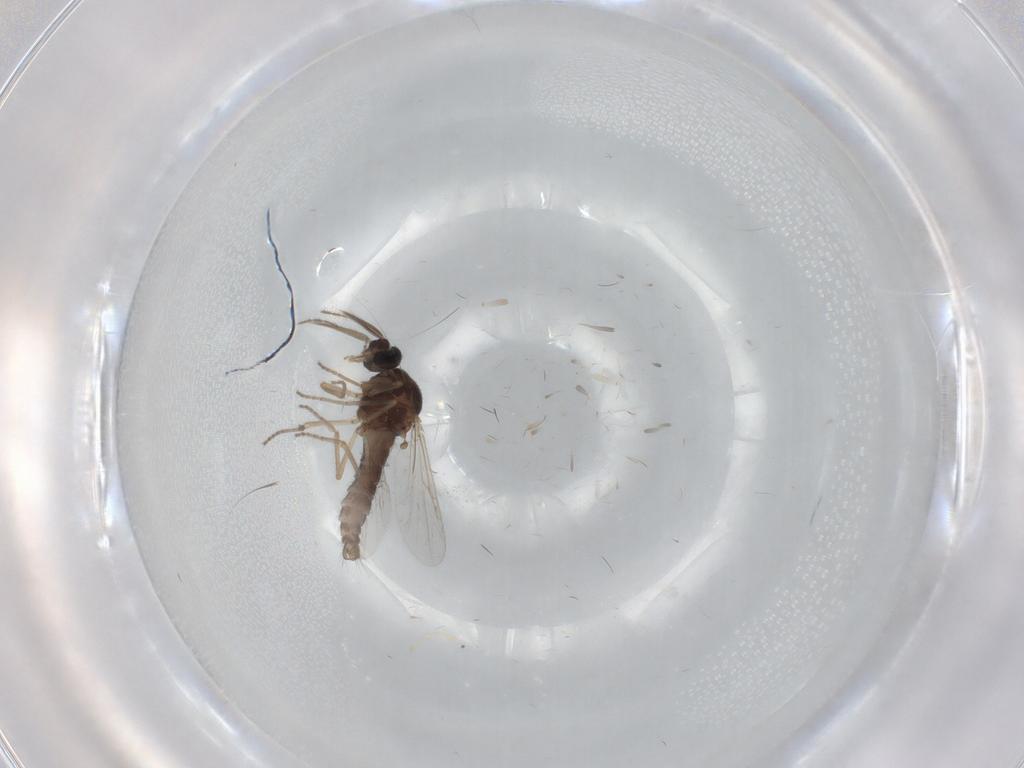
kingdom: Animalia
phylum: Arthropoda
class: Insecta
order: Diptera
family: Ceratopogonidae
